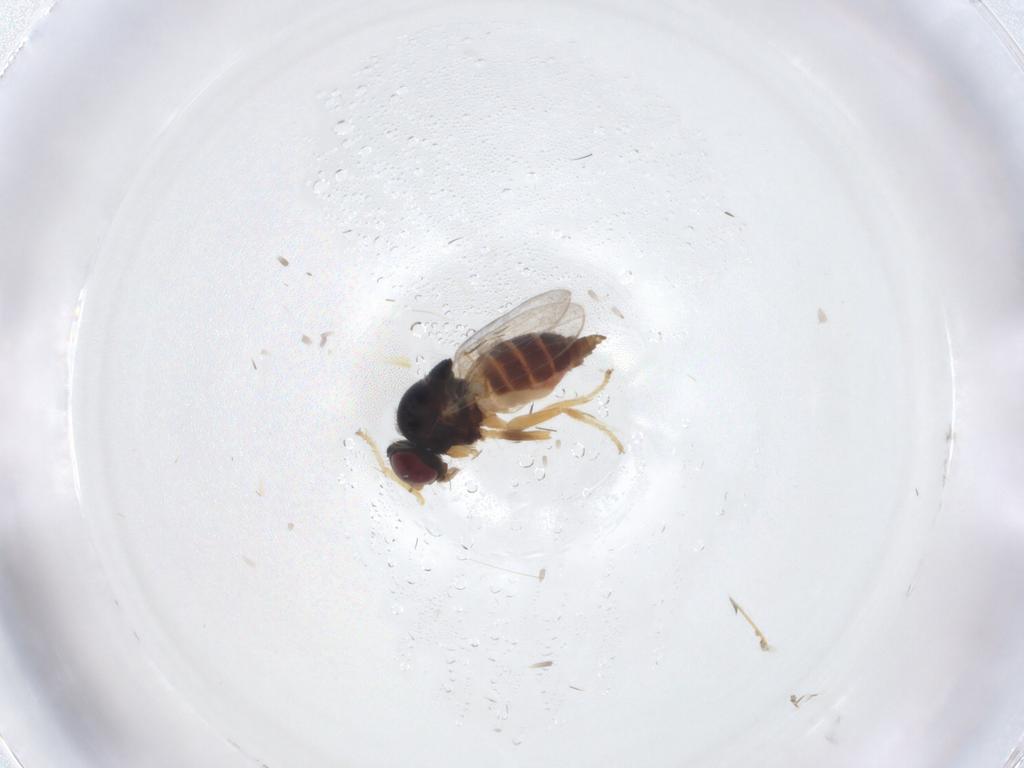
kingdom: Animalia
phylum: Arthropoda
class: Insecta
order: Diptera
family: Chloropidae
